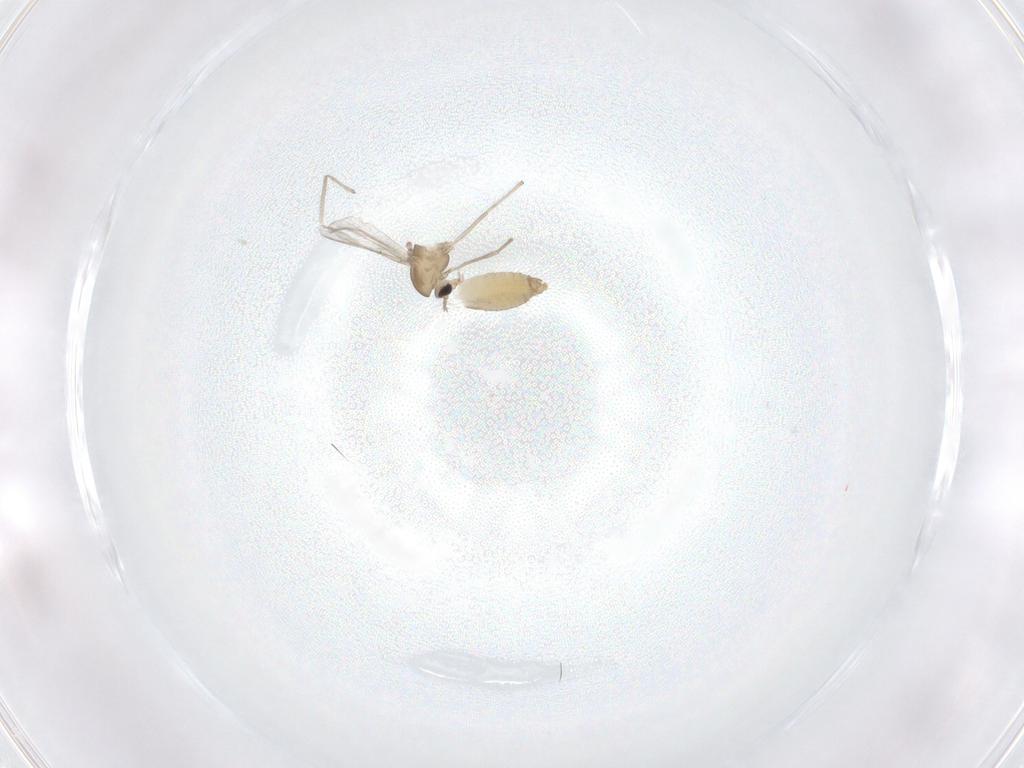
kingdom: Animalia
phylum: Arthropoda
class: Insecta
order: Diptera
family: Chironomidae
